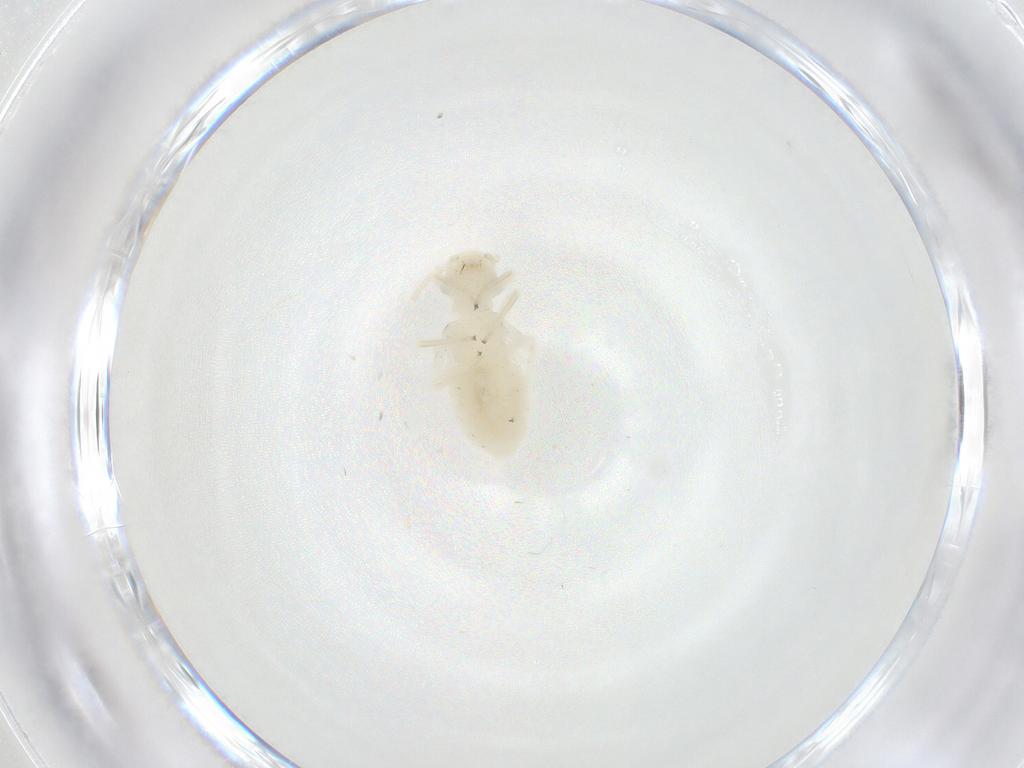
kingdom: Animalia
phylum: Arthropoda
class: Insecta
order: Psocodea
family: Caeciliusidae
